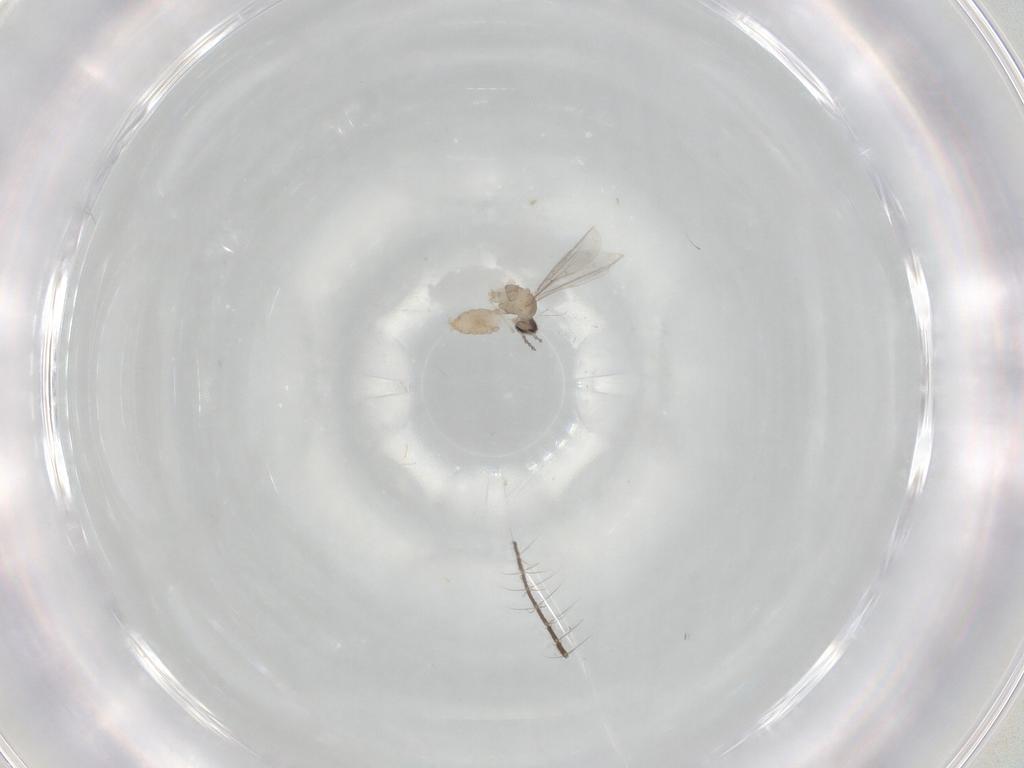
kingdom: Animalia
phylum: Arthropoda
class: Insecta
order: Diptera
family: Cecidomyiidae
